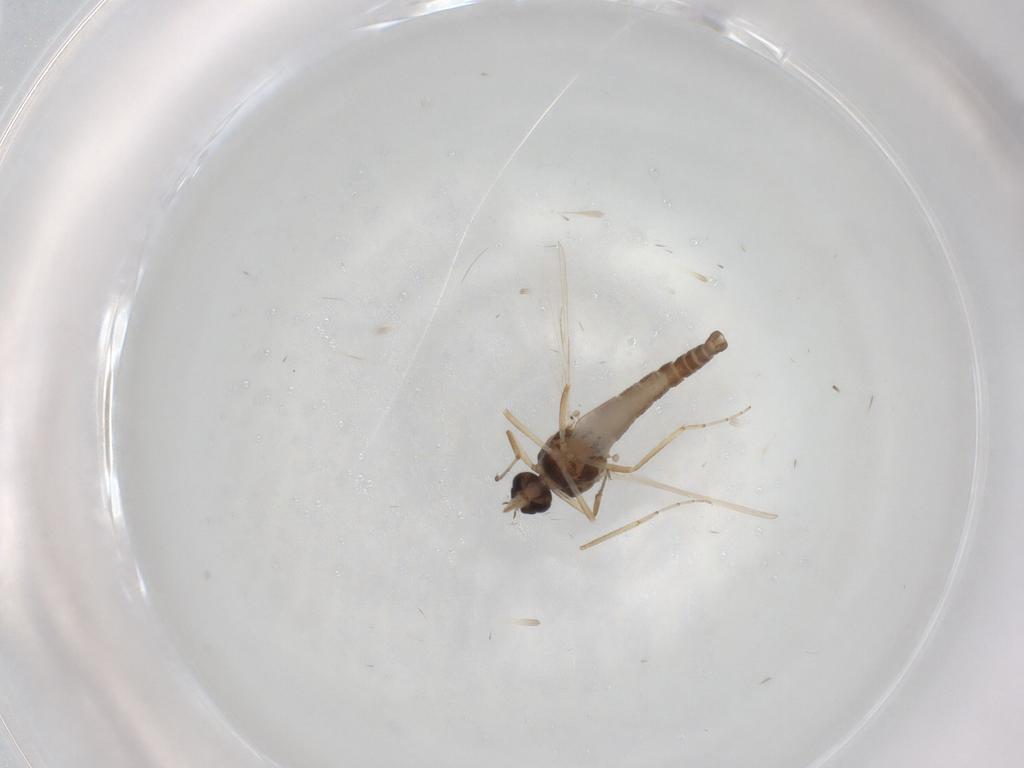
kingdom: Animalia
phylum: Arthropoda
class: Insecta
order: Diptera
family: Ceratopogonidae
